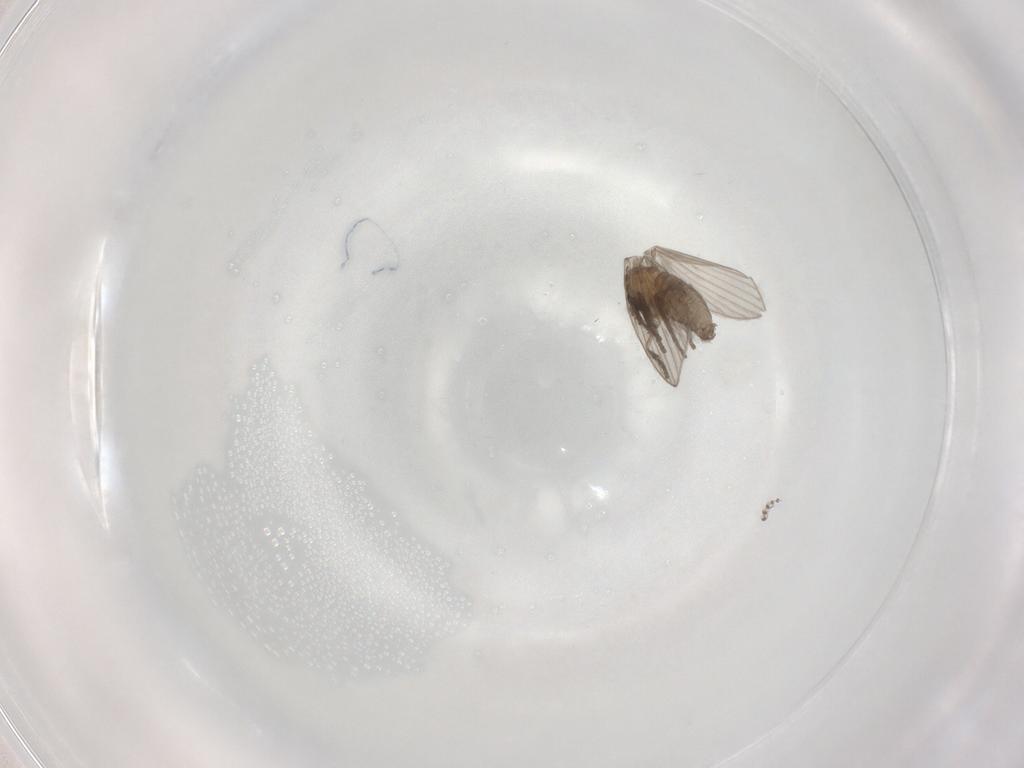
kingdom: Animalia
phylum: Arthropoda
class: Insecta
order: Diptera
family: Psychodidae
